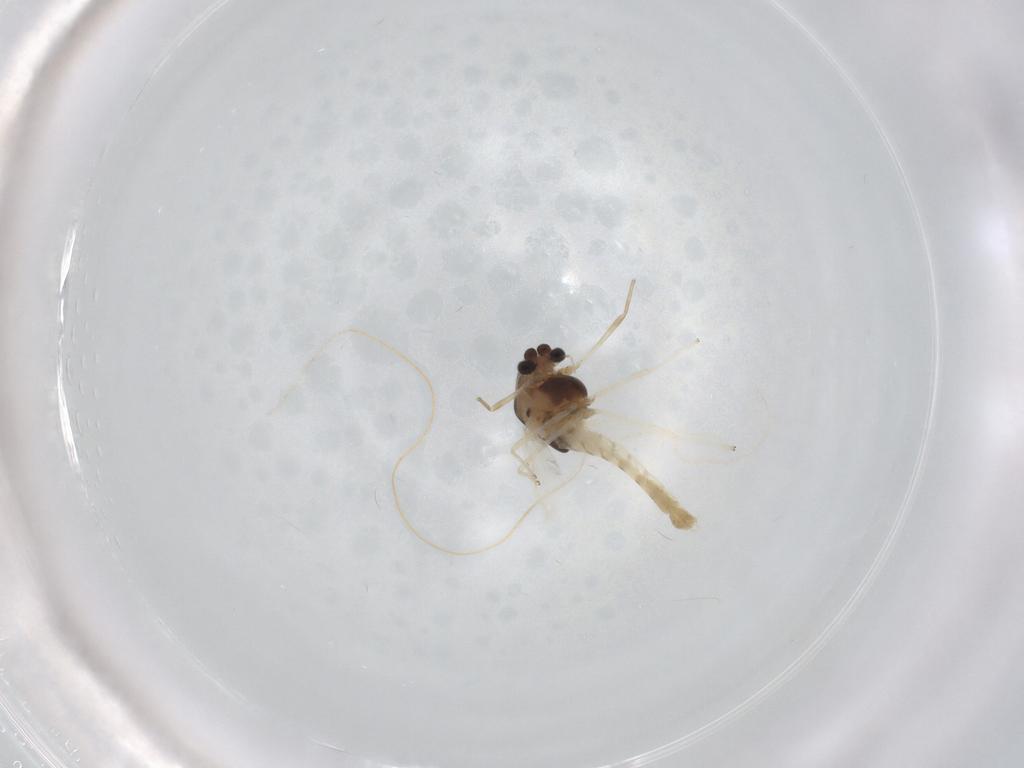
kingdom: Animalia
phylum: Arthropoda
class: Insecta
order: Diptera
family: Chironomidae
